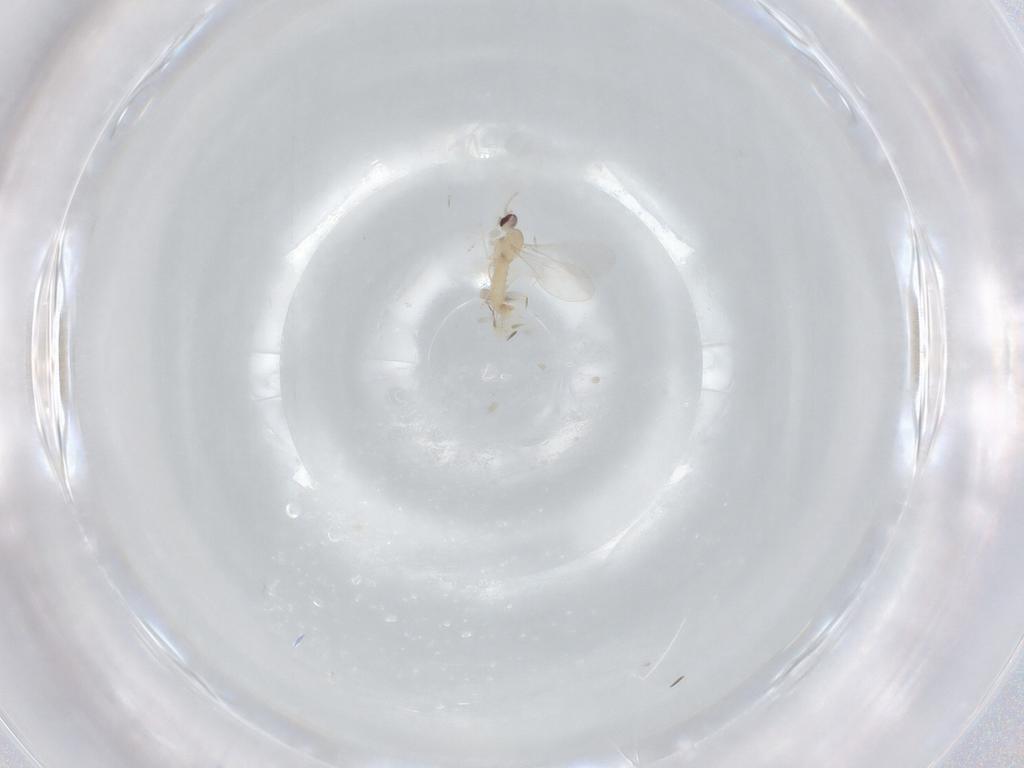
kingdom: Animalia
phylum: Arthropoda
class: Insecta
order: Diptera
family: Cecidomyiidae
